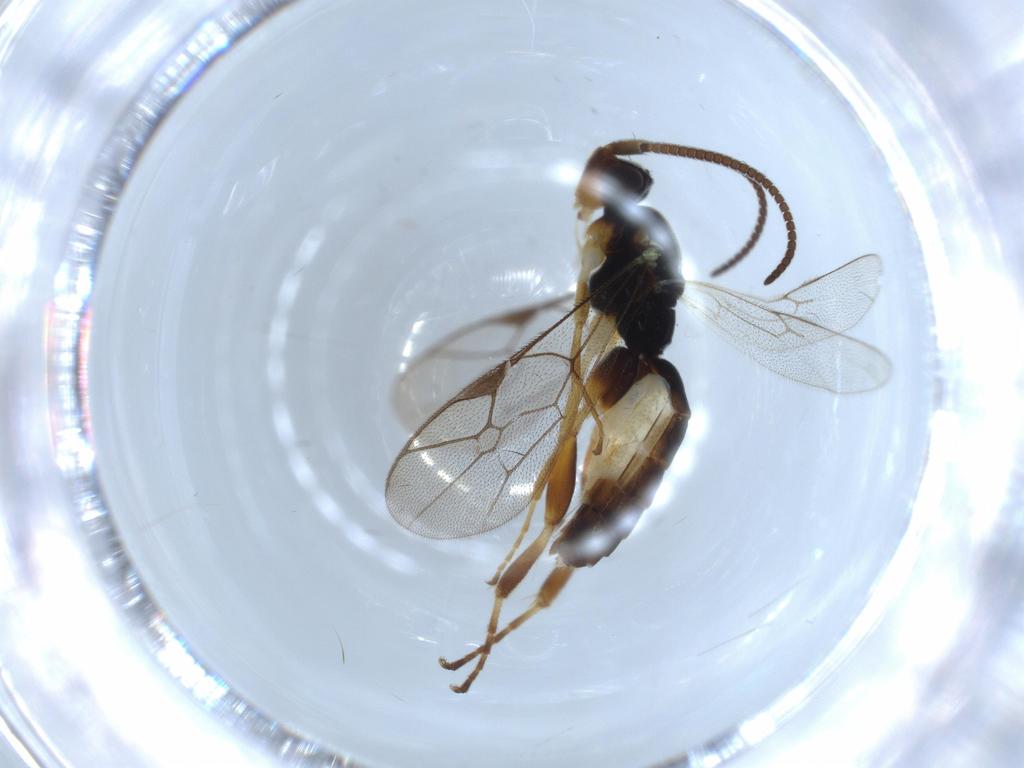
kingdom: Animalia
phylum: Arthropoda
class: Insecta
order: Hymenoptera
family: Ichneumonidae
